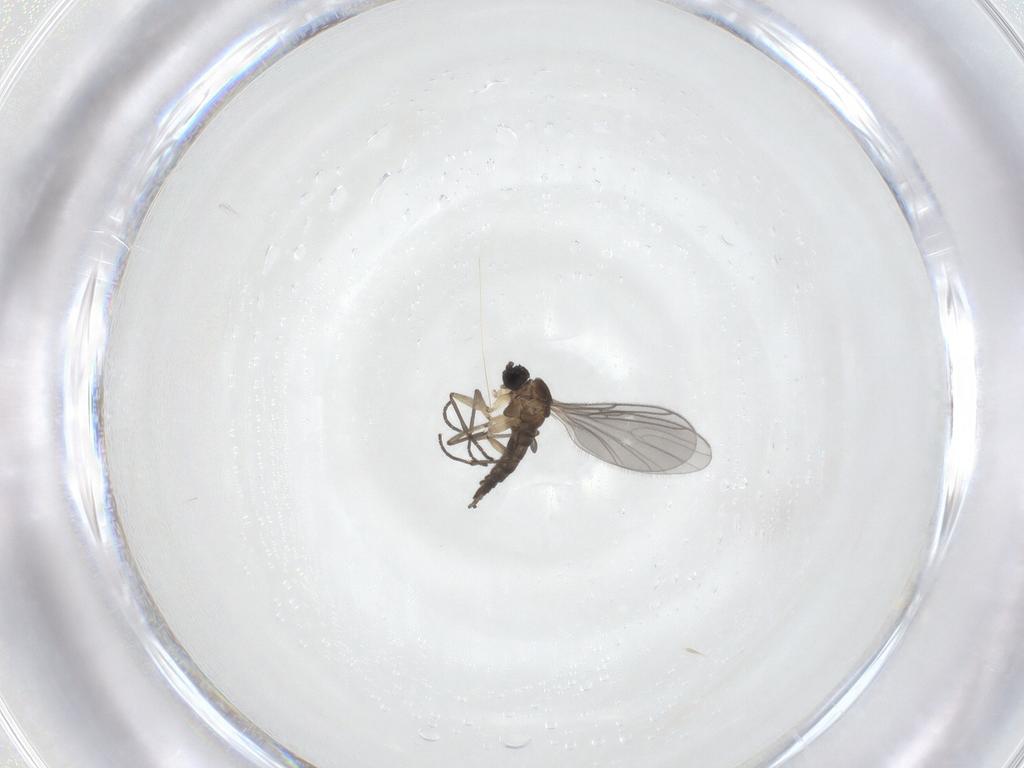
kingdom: Animalia
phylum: Arthropoda
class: Insecta
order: Diptera
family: Sciaridae
